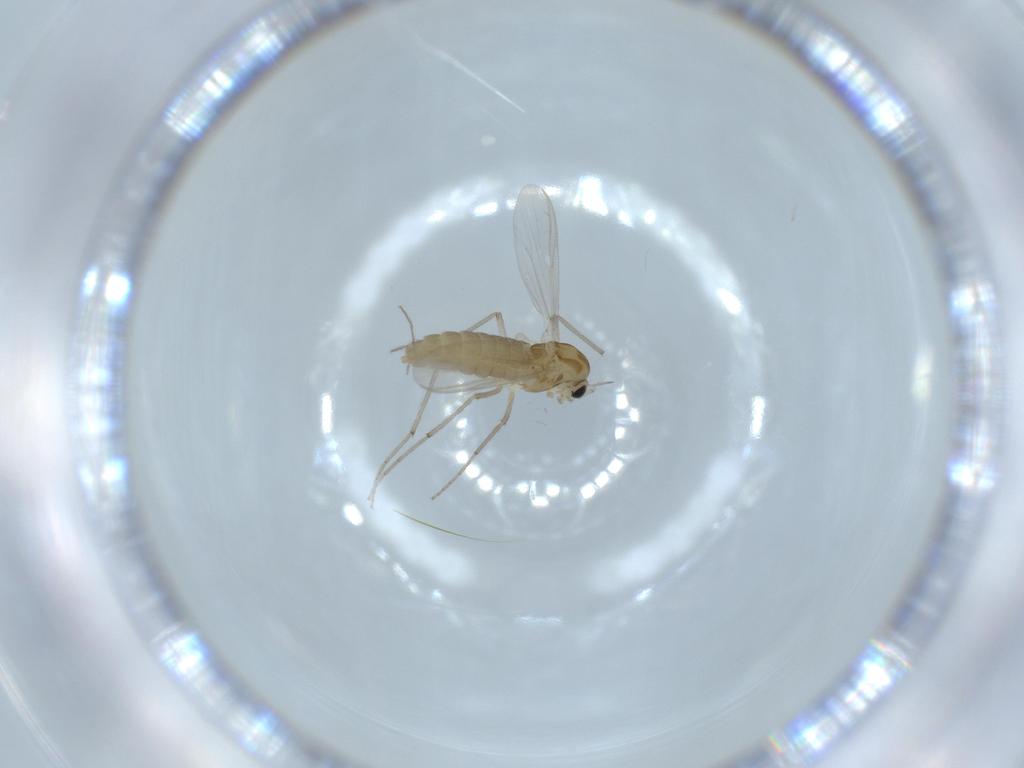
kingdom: Animalia
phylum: Arthropoda
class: Insecta
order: Diptera
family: Chironomidae
